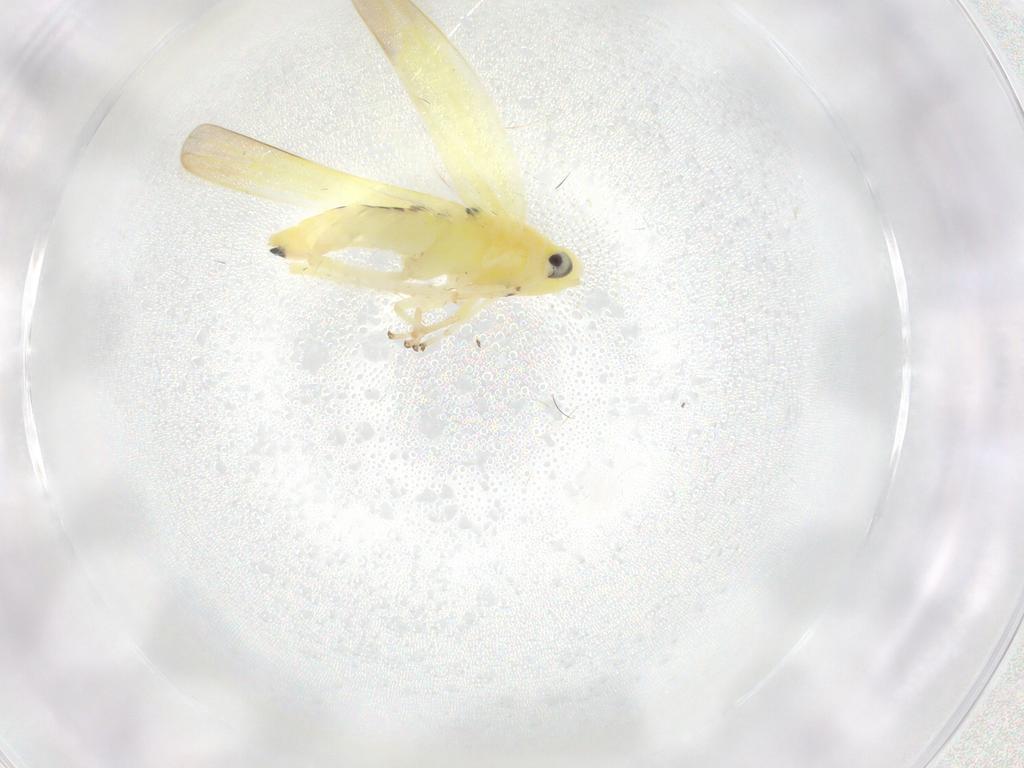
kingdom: Animalia
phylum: Arthropoda
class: Insecta
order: Hemiptera
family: Cicadellidae
